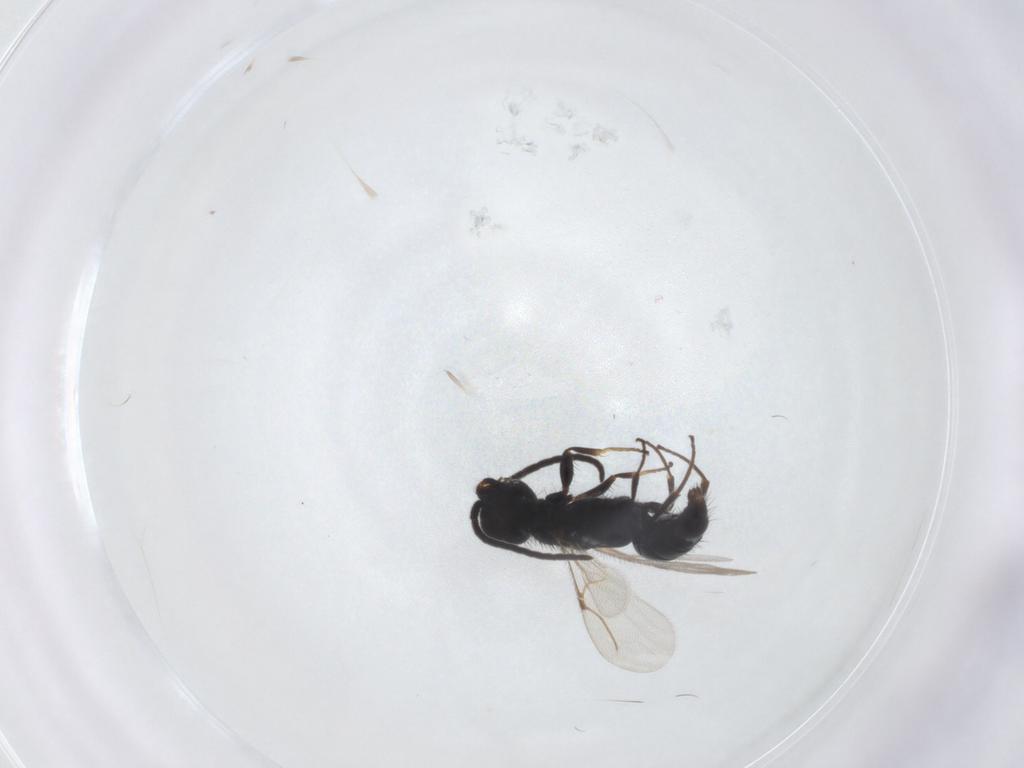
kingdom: Animalia
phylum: Arthropoda
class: Insecta
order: Hymenoptera
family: Bethylidae
